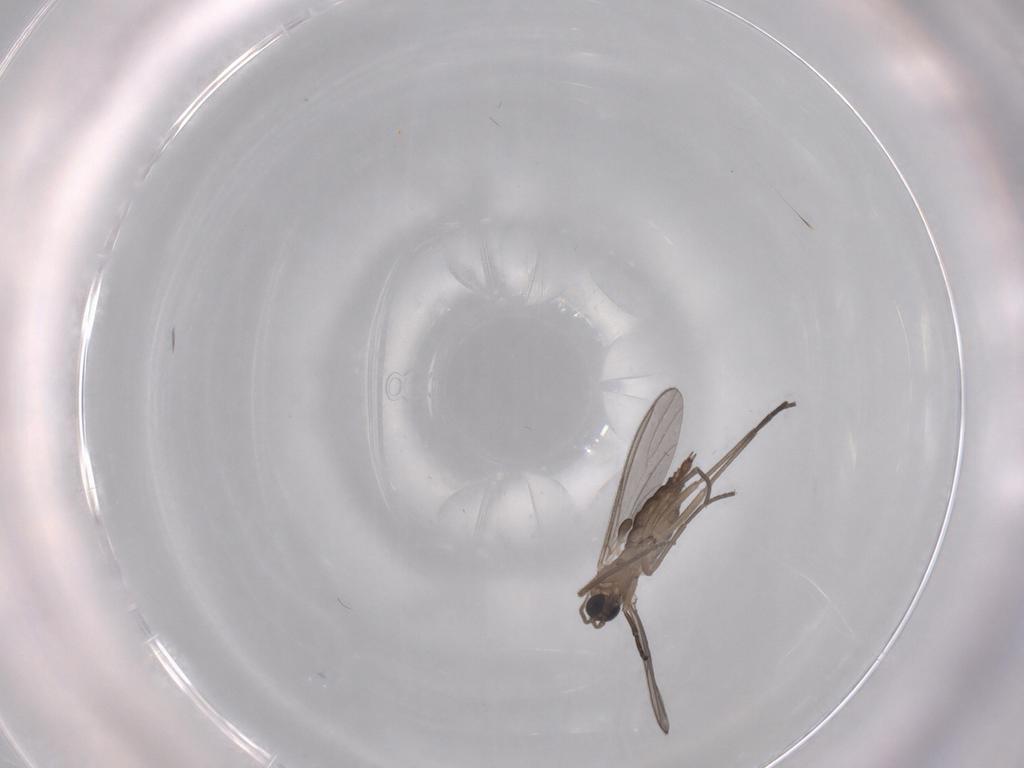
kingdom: Animalia
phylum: Arthropoda
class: Insecta
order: Diptera
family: Sciaridae
